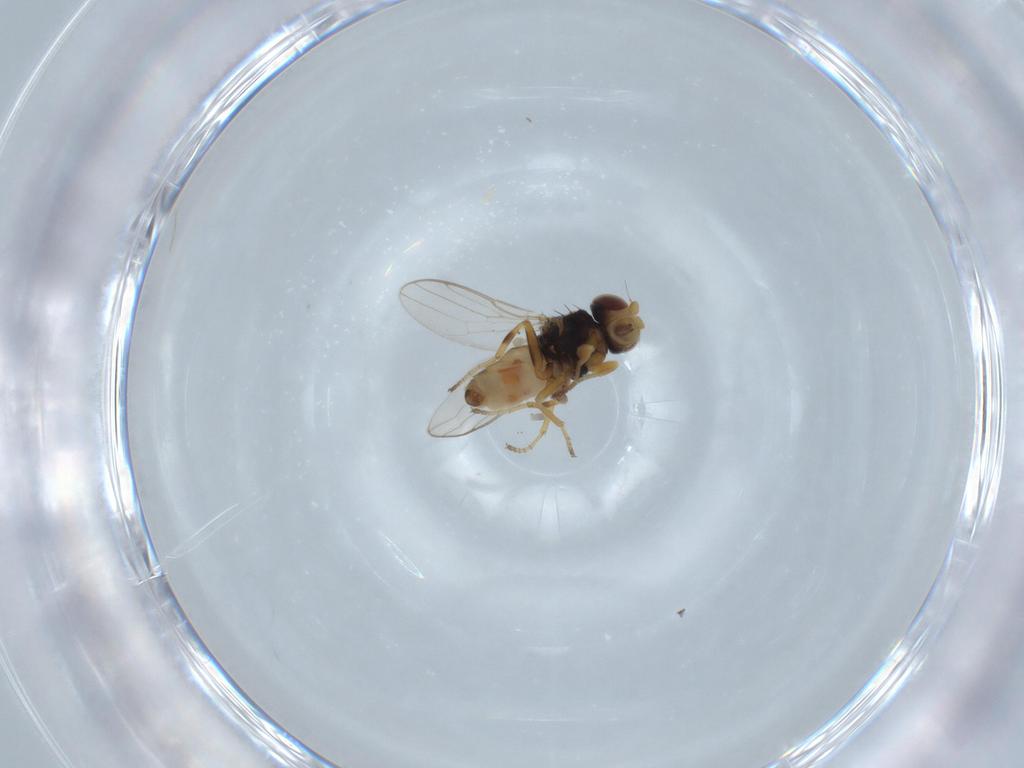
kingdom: Animalia
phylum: Arthropoda
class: Insecta
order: Diptera
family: Chloropidae
